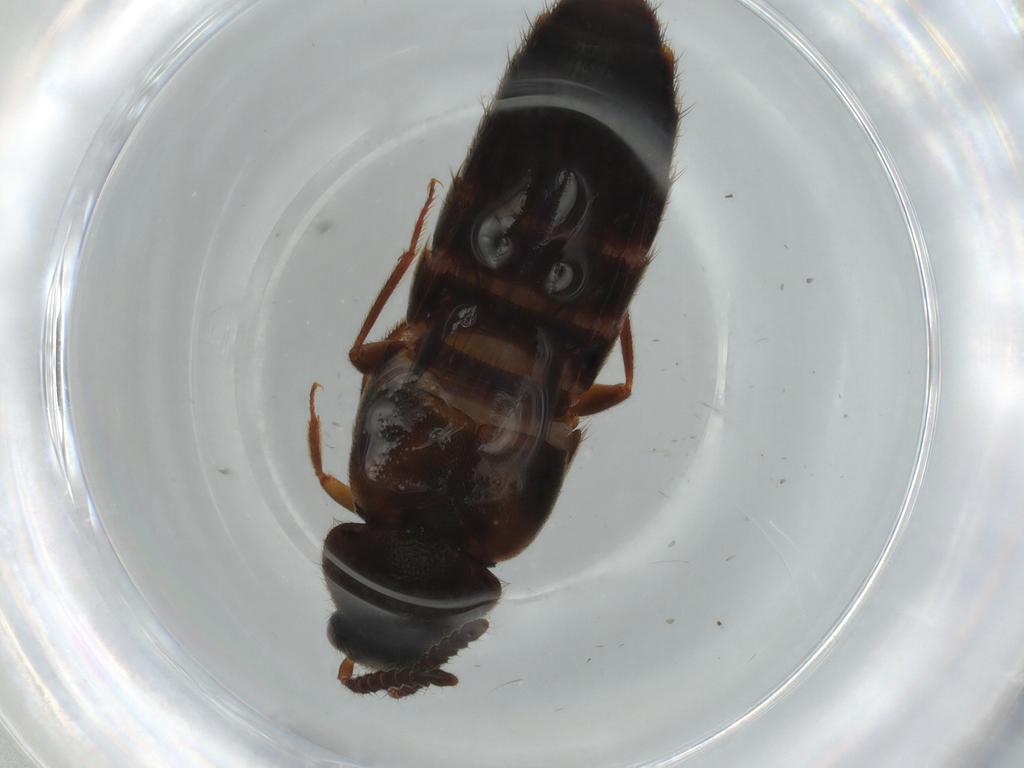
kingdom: Animalia
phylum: Arthropoda
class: Insecta
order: Coleoptera
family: Staphylinidae
